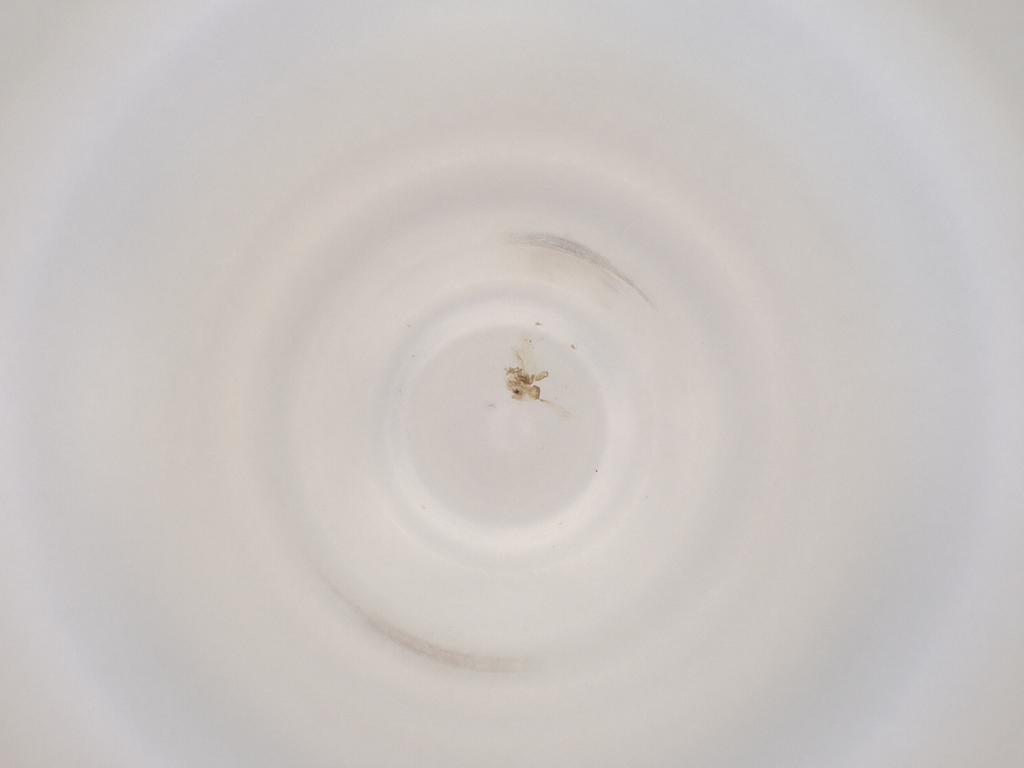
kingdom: Animalia
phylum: Arthropoda
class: Insecta
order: Diptera
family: Cecidomyiidae
